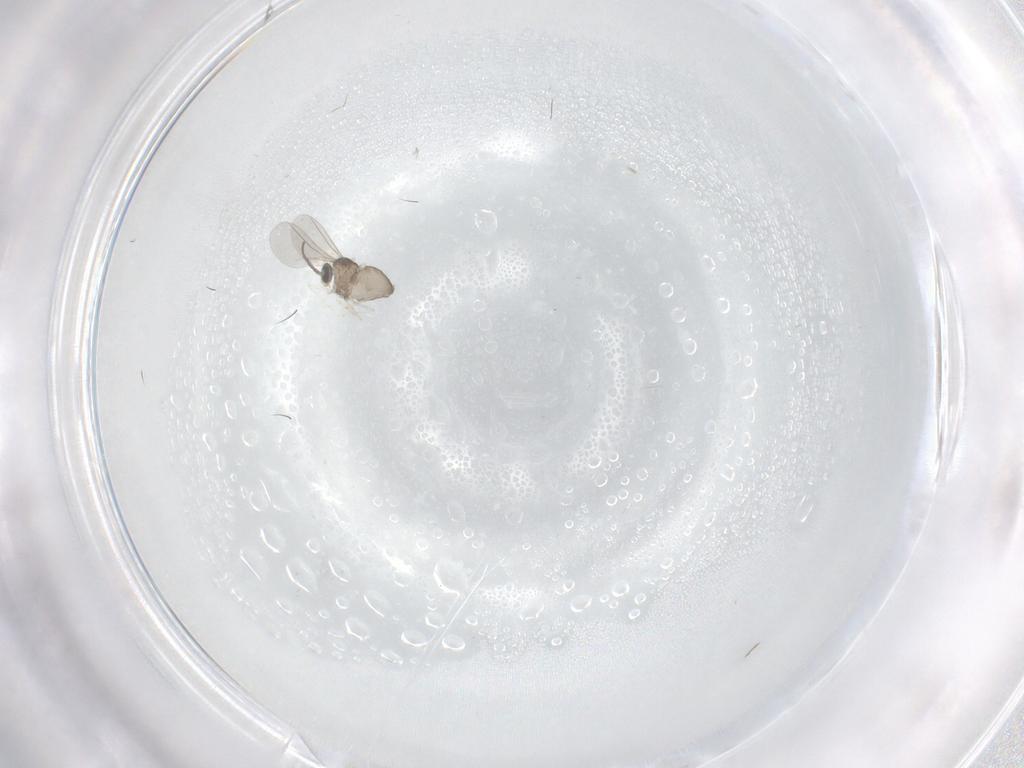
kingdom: Animalia
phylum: Arthropoda
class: Insecta
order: Diptera
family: Cecidomyiidae
